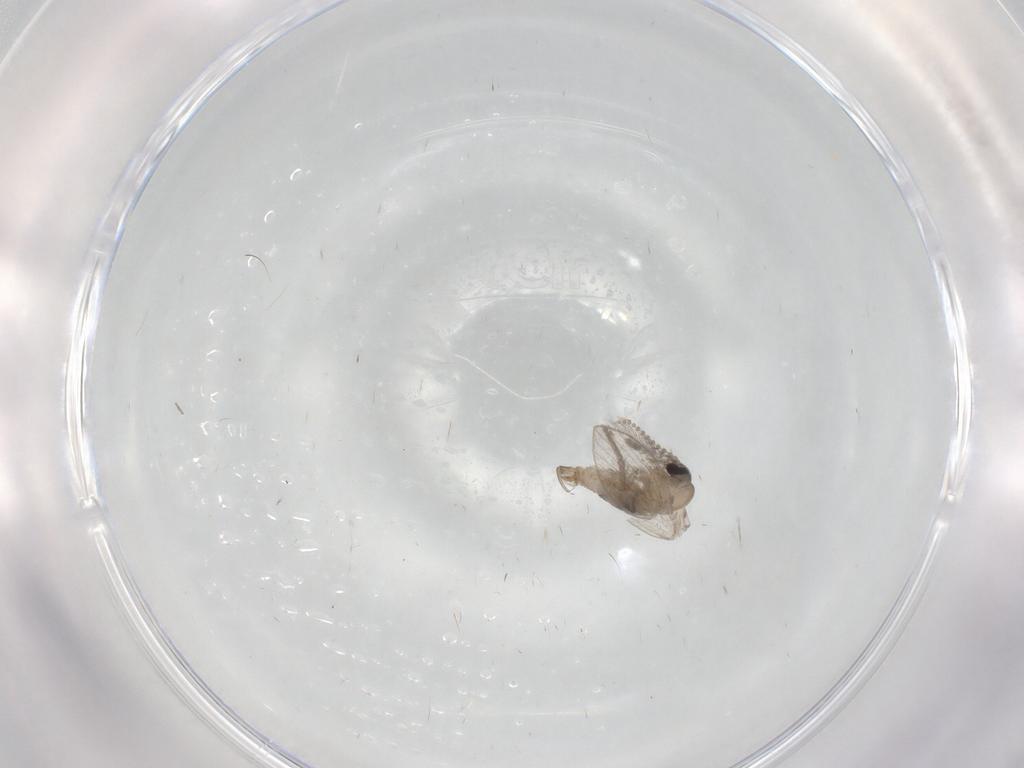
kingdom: Animalia
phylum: Arthropoda
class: Insecta
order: Diptera
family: Psychodidae
